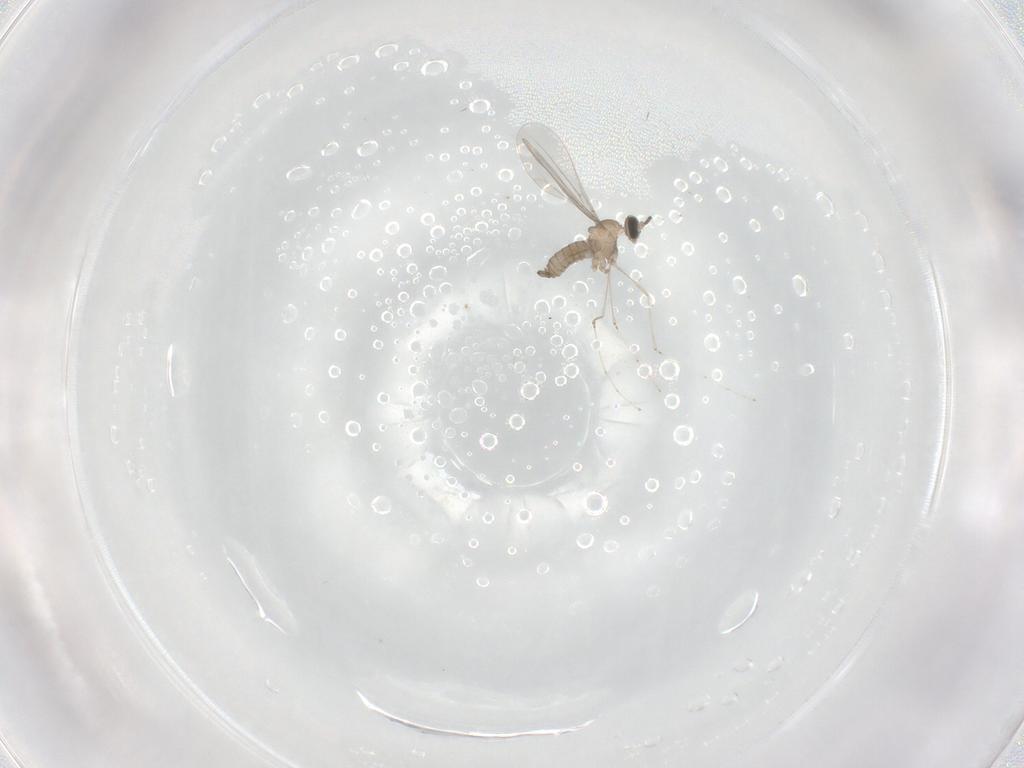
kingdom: Animalia
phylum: Arthropoda
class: Insecta
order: Diptera
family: Cecidomyiidae
